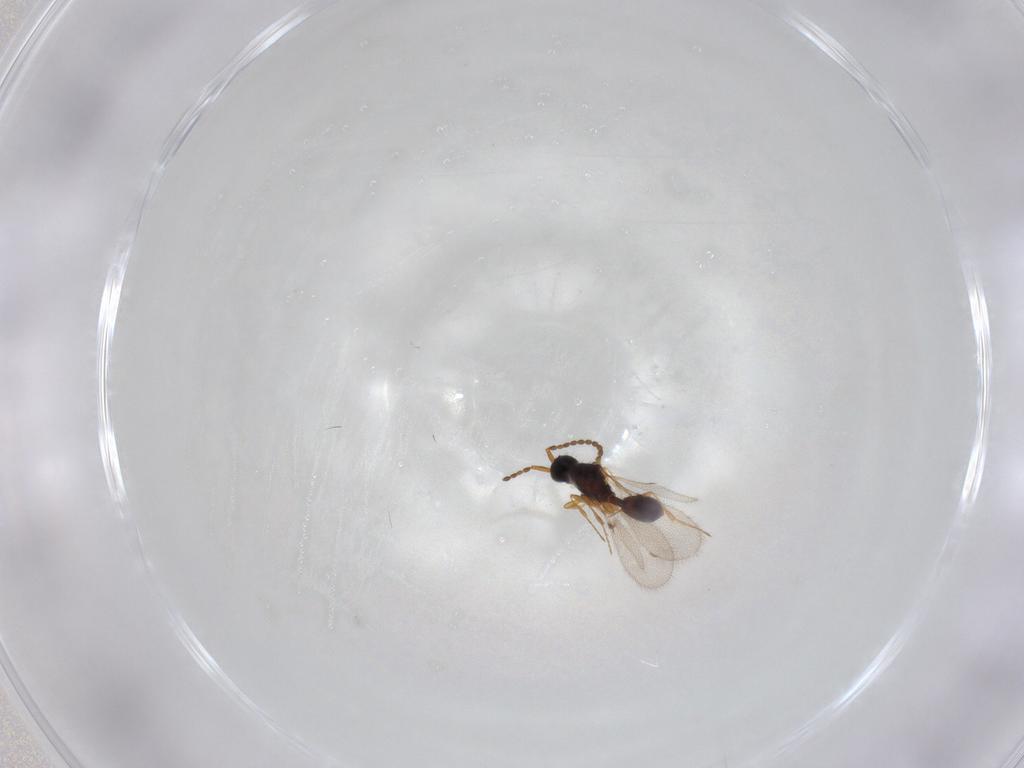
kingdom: Animalia
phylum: Arthropoda
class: Insecta
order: Hymenoptera
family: Diapriidae
